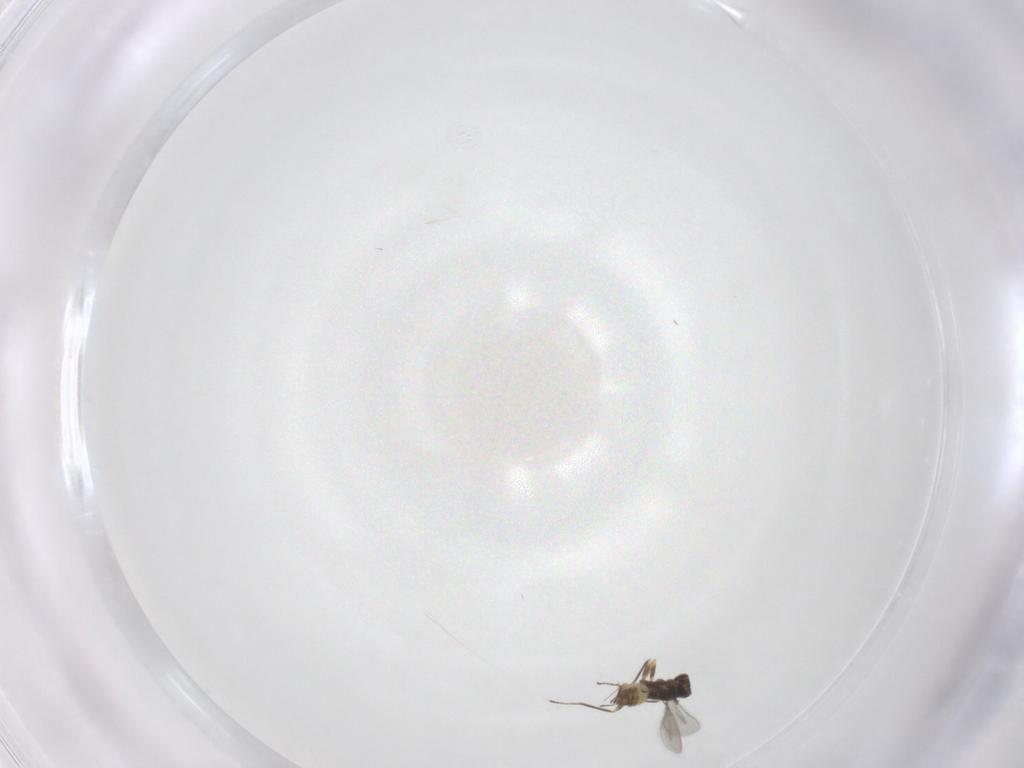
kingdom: Animalia
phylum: Arthropoda
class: Insecta
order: Hymenoptera
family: Mymaridae
